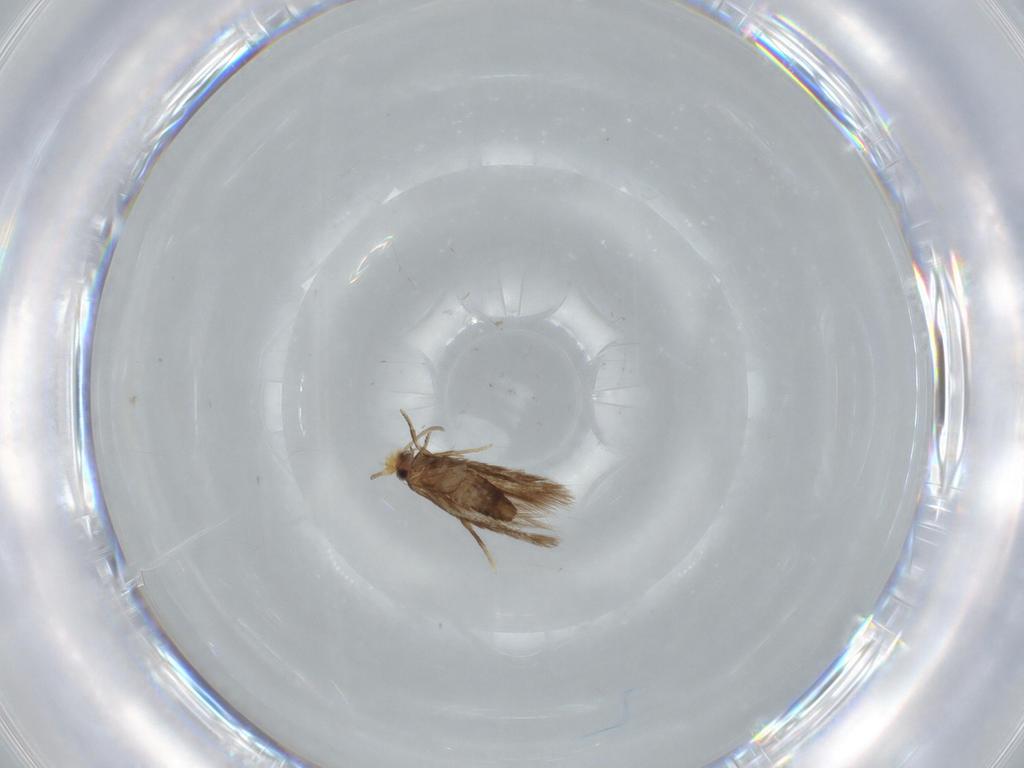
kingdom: Animalia
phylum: Arthropoda
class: Insecta
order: Lepidoptera
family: Nepticulidae
